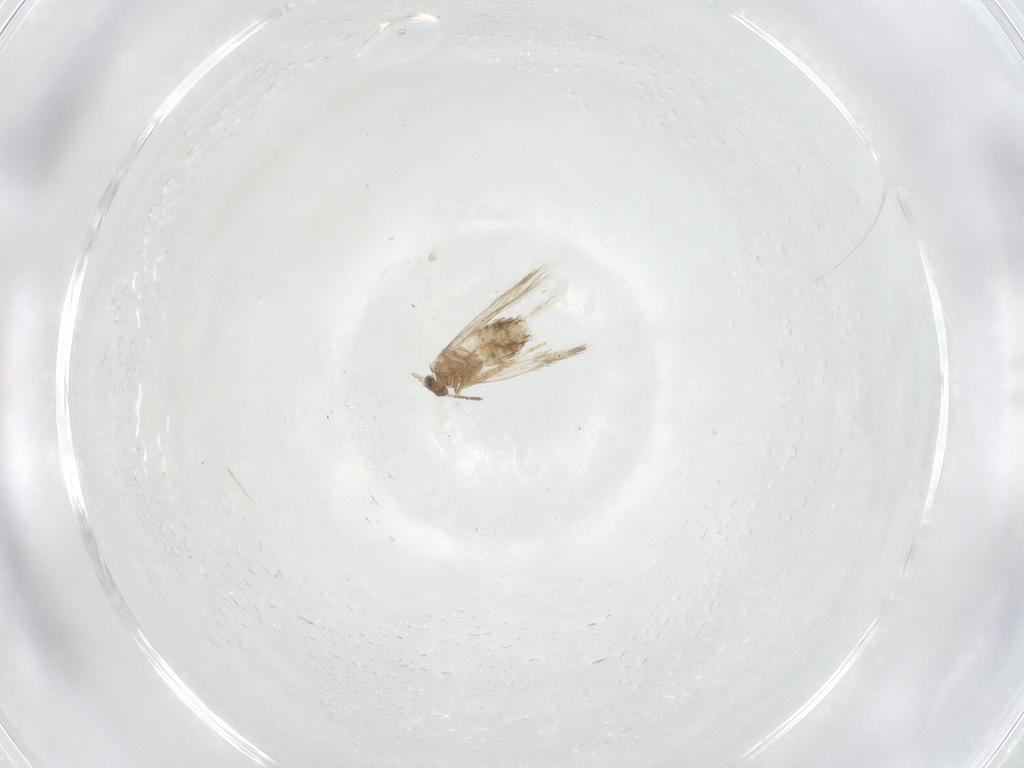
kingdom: Animalia
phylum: Arthropoda
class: Insecta
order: Lepidoptera
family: Nepticulidae
